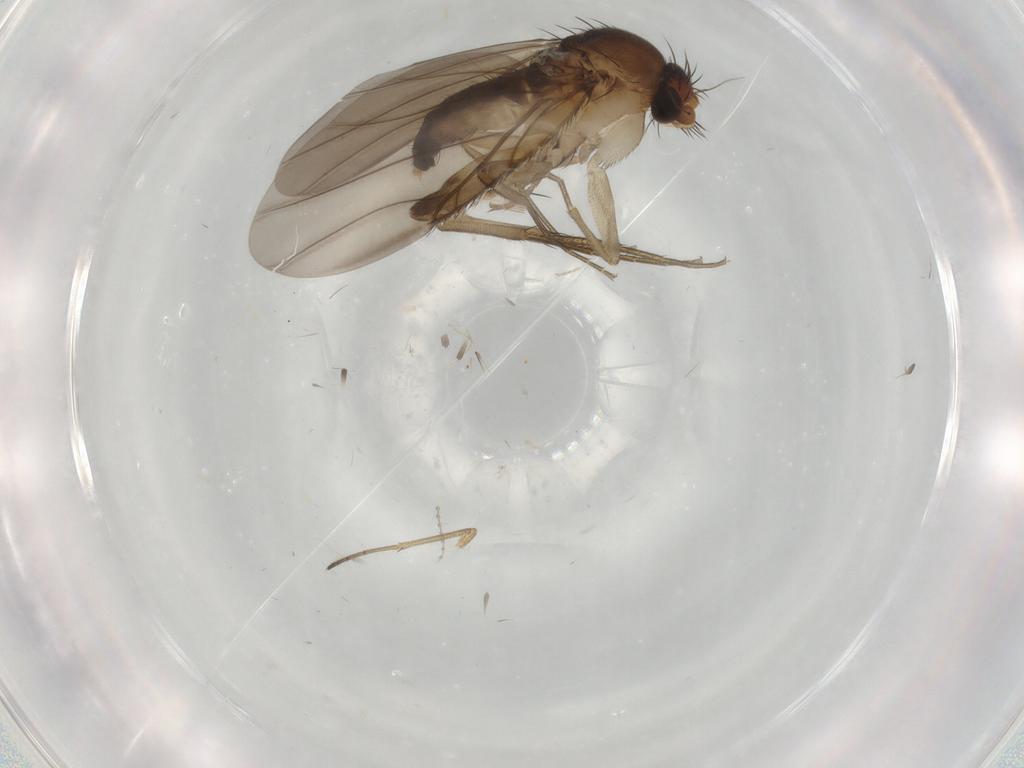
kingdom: Animalia
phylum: Arthropoda
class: Insecta
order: Diptera
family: Phoridae
